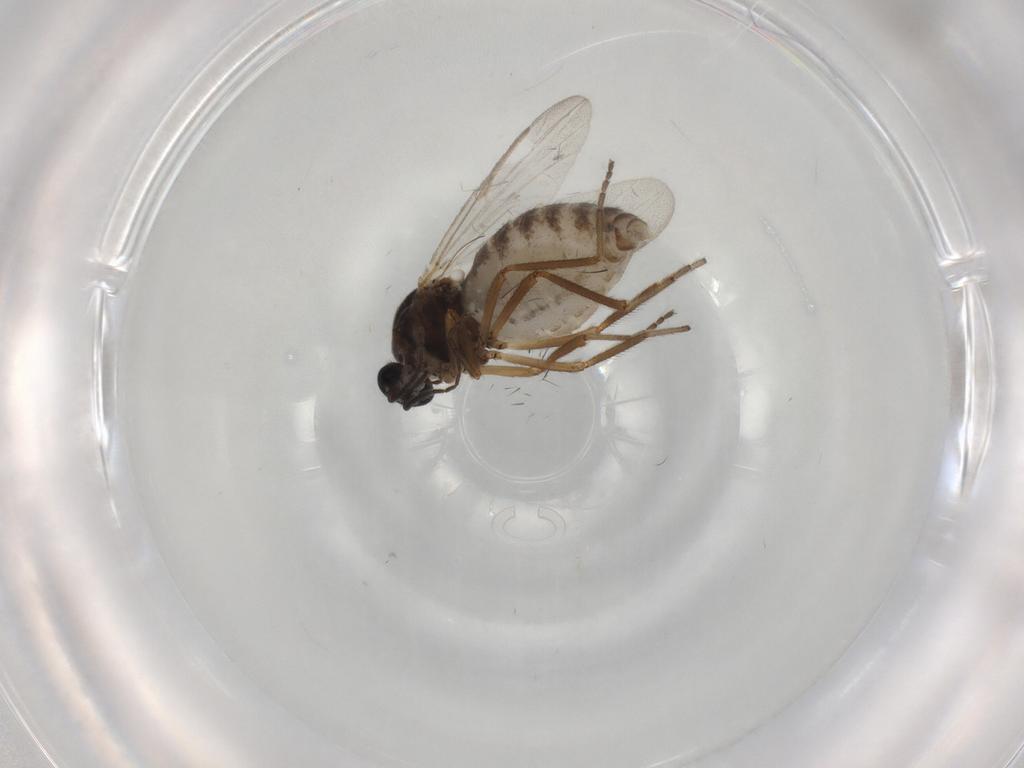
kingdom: Animalia
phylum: Arthropoda
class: Insecta
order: Diptera
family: Ceratopogonidae
